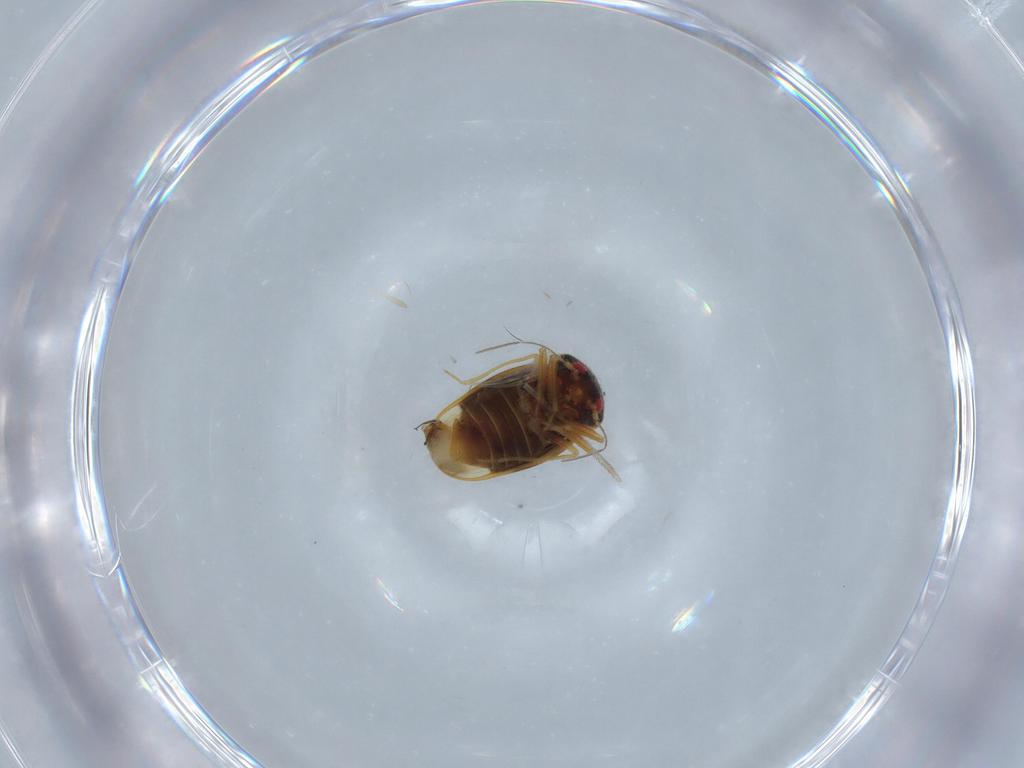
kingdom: Animalia
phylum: Arthropoda
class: Insecta
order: Hemiptera
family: Schizopteridae
